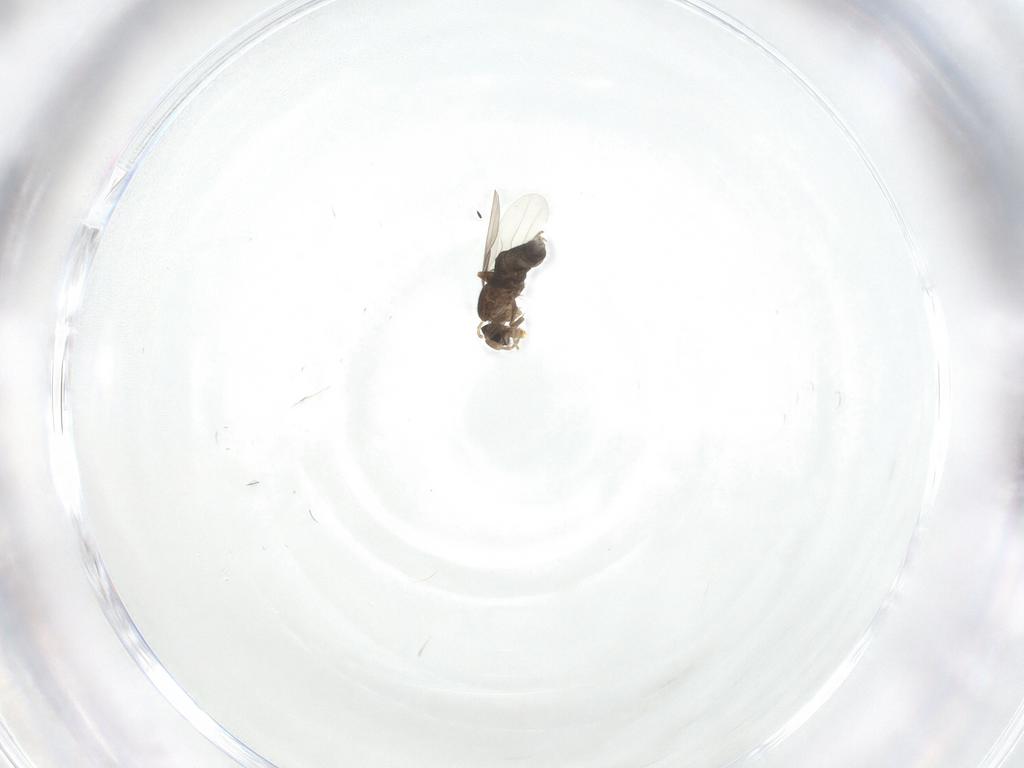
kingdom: Animalia
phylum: Arthropoda
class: Insecta
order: Diptera
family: Phoridae
